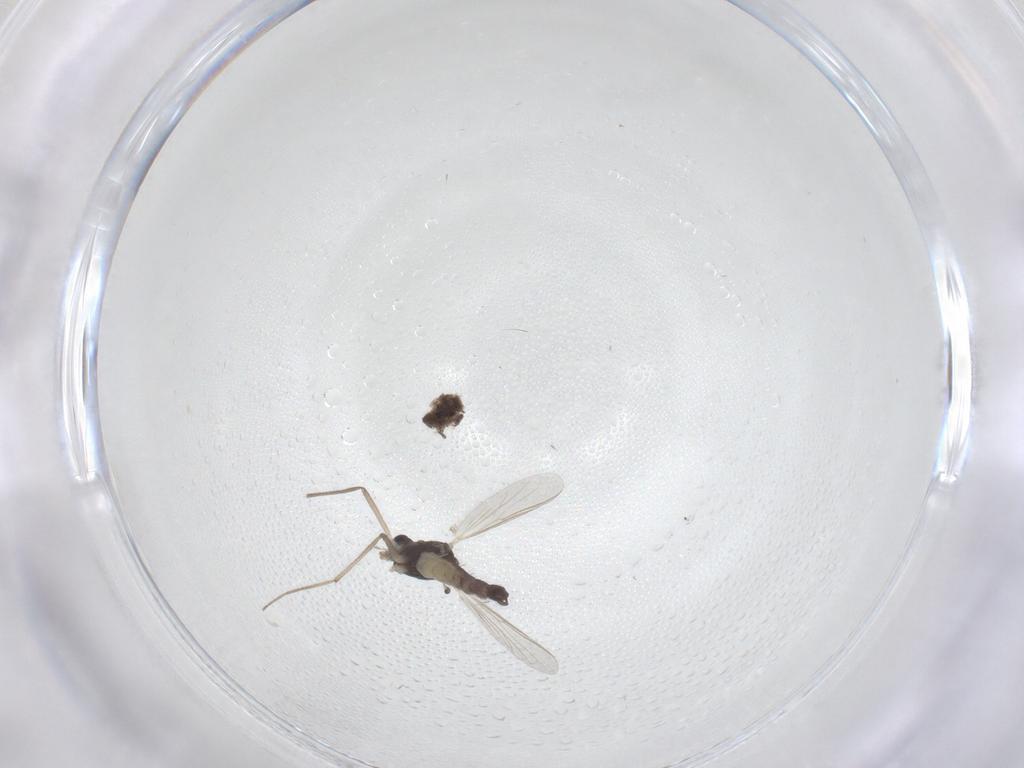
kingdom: Animalia
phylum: Arthropoda
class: Insecta
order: Diptera
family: Chironomidae
